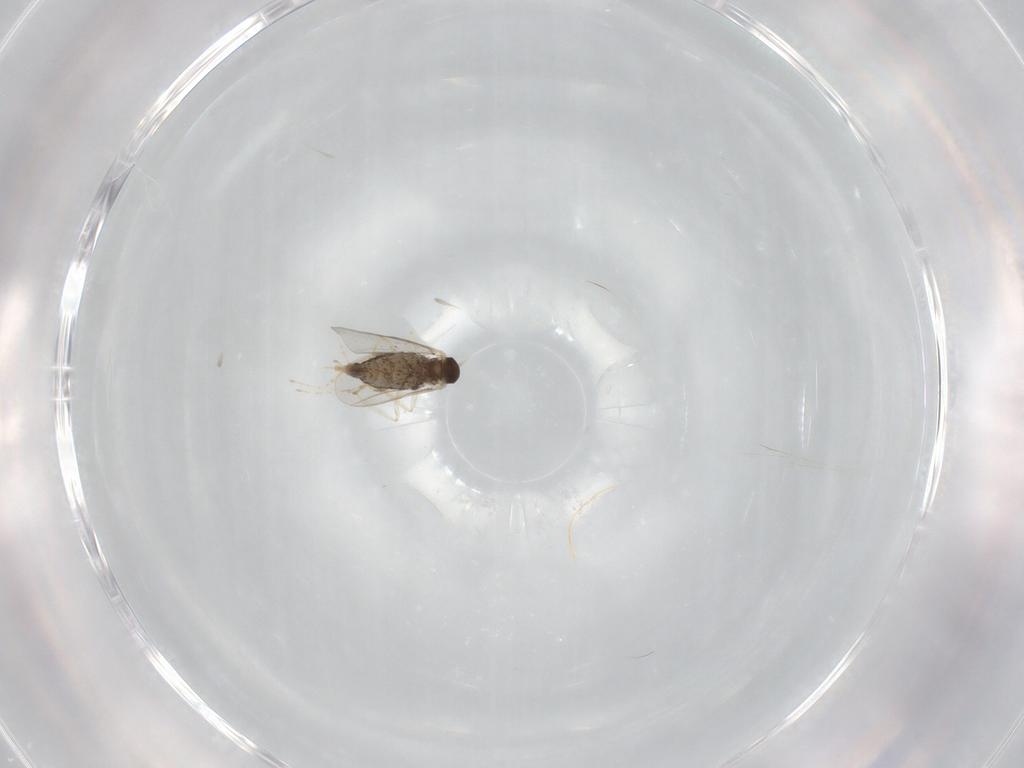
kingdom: Animalia
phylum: Arthropoda
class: Insecta
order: Diptera
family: Cecidomyiidae
